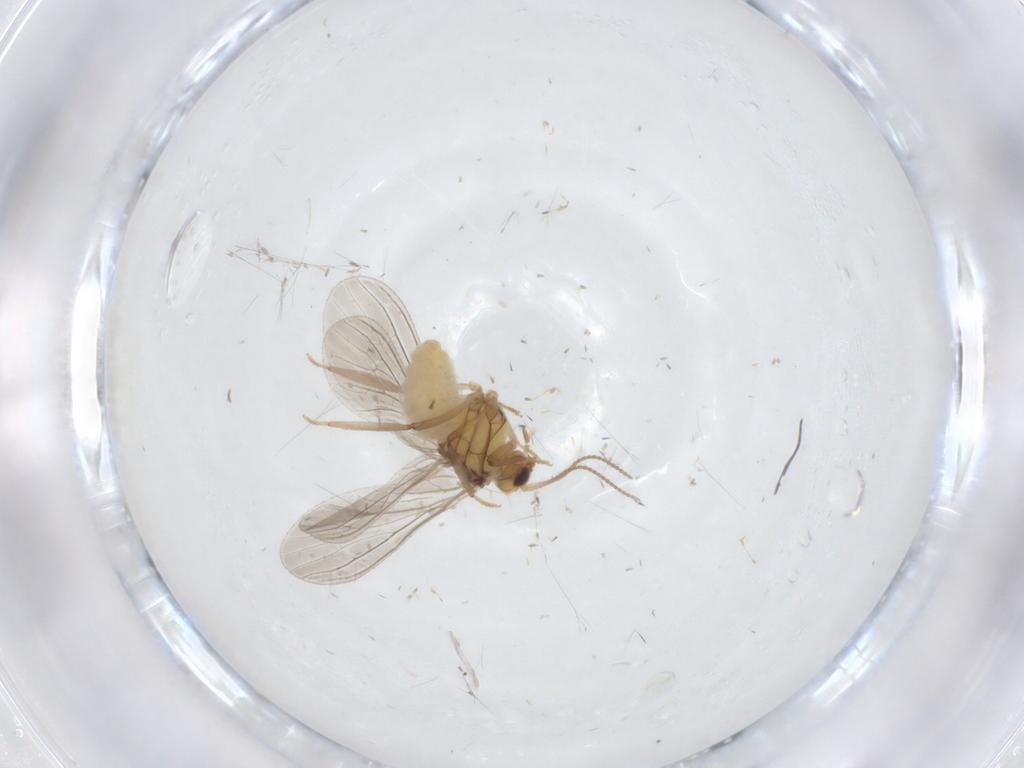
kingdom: Animalia
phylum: Arthropoda
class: Insecta
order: Neuroptera
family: Coniopterygidae
